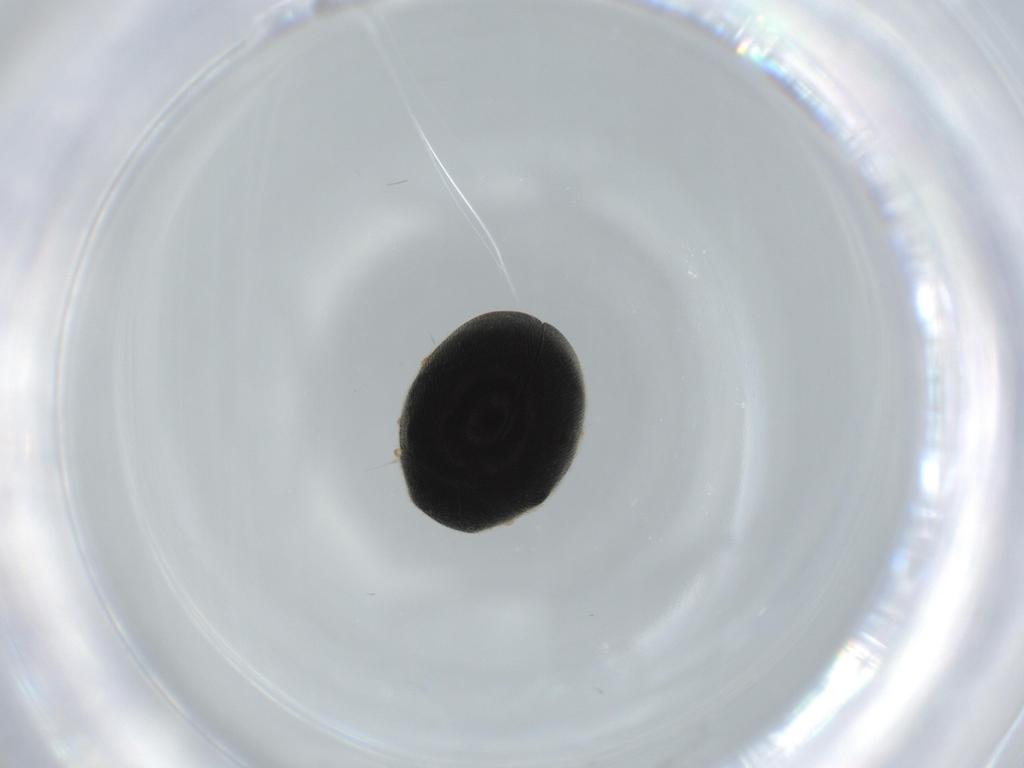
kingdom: Animalia
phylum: Arthropoda
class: Insecta
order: Coleoptera
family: Coccinellidae
